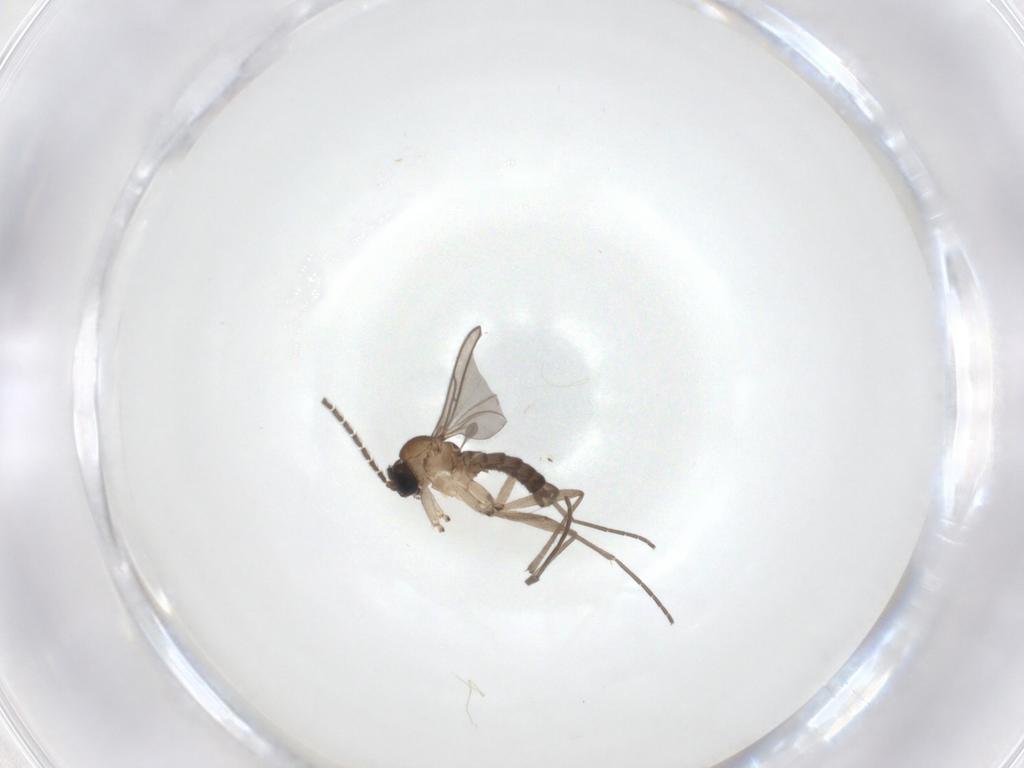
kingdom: Animalia
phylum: Arthropoda
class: Insecta
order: Diptera
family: Sciaridae
